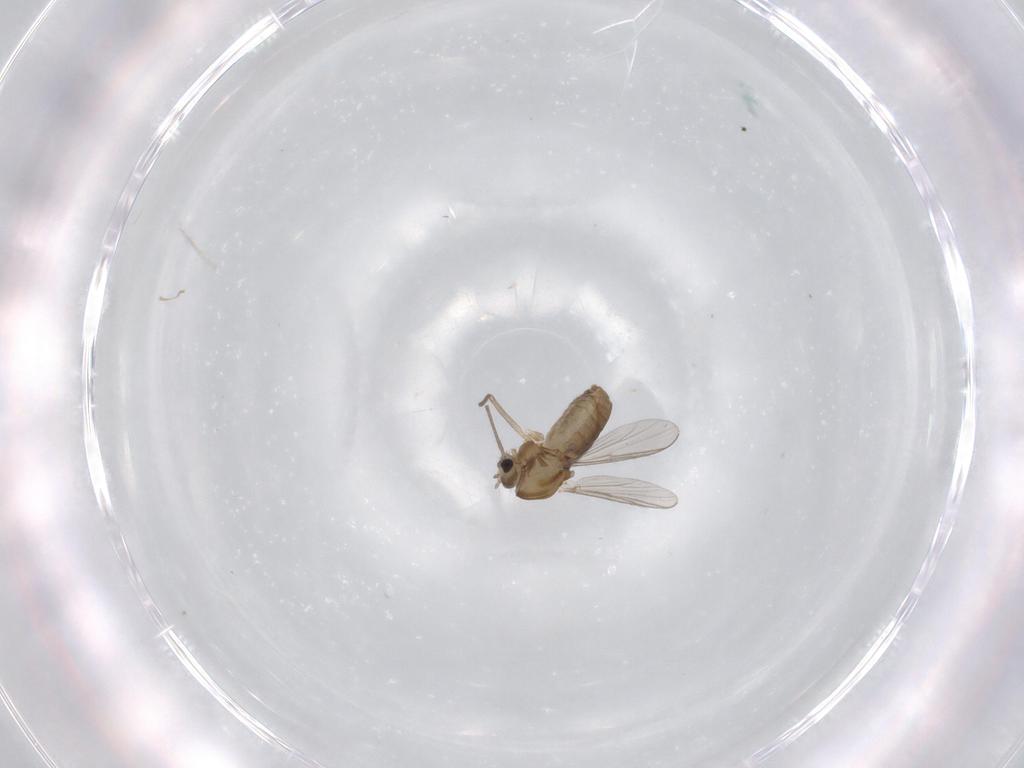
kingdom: Animalia
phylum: Arthropoda
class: Insecta
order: Diptera
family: Chironomidae
